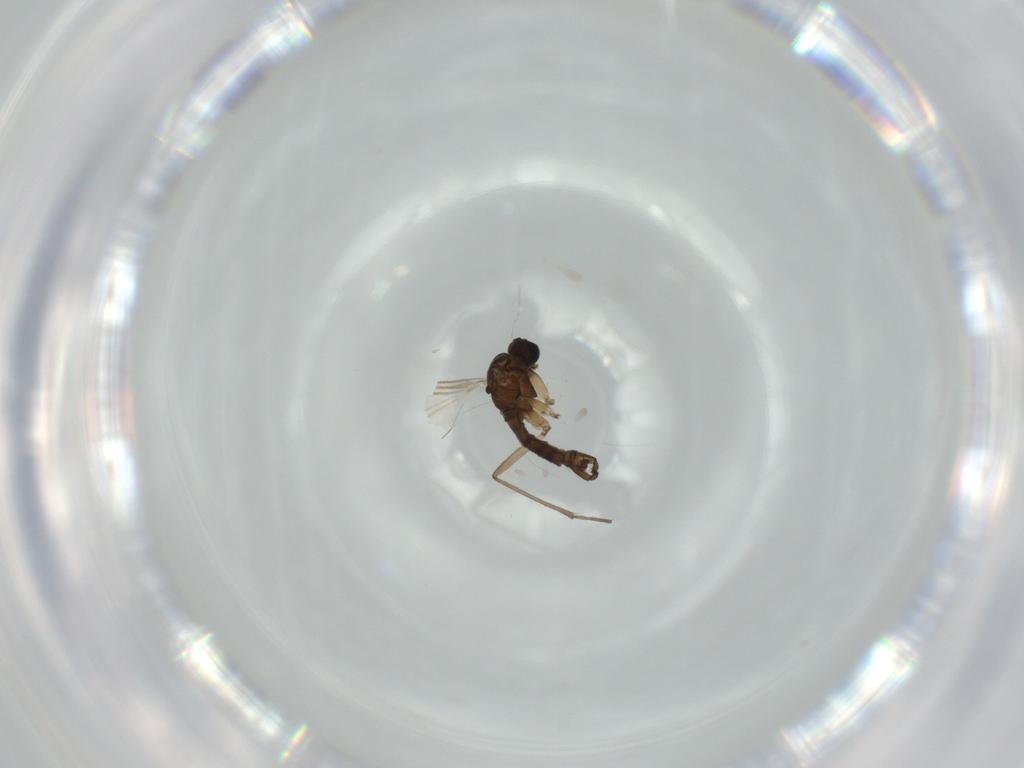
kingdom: Animalia
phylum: Arthropoda
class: Insecta
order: Diptera
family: Sciaridae
